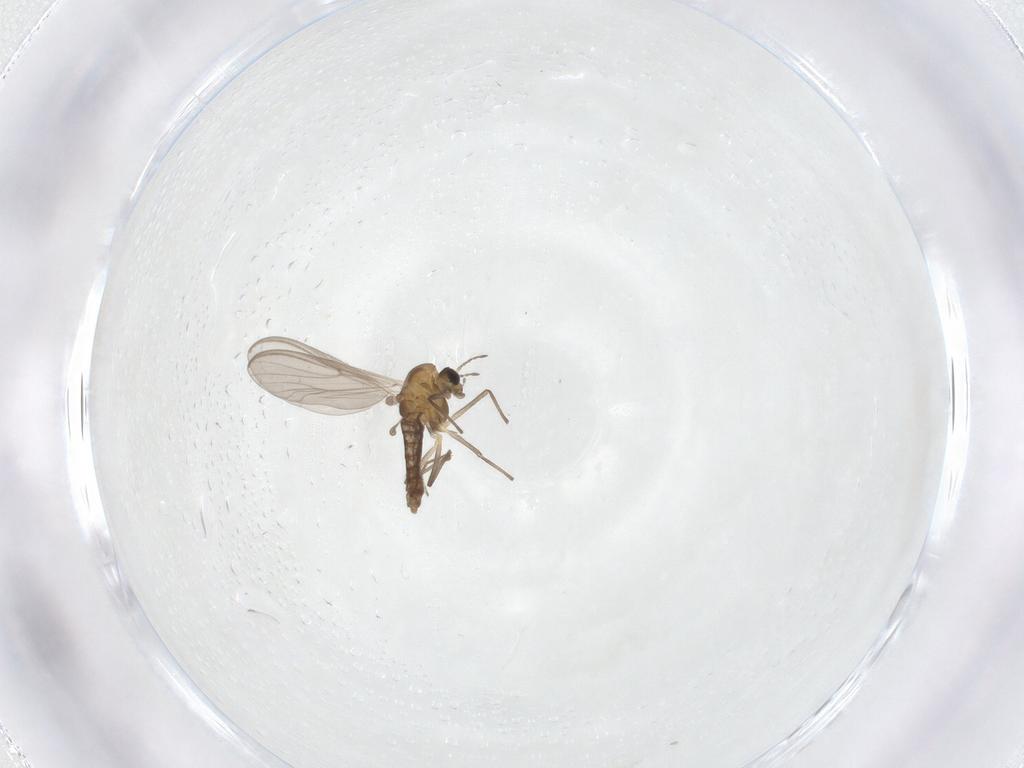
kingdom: Animalia
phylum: Arthropoda
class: Insecta
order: Diptera
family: Chironomidae
